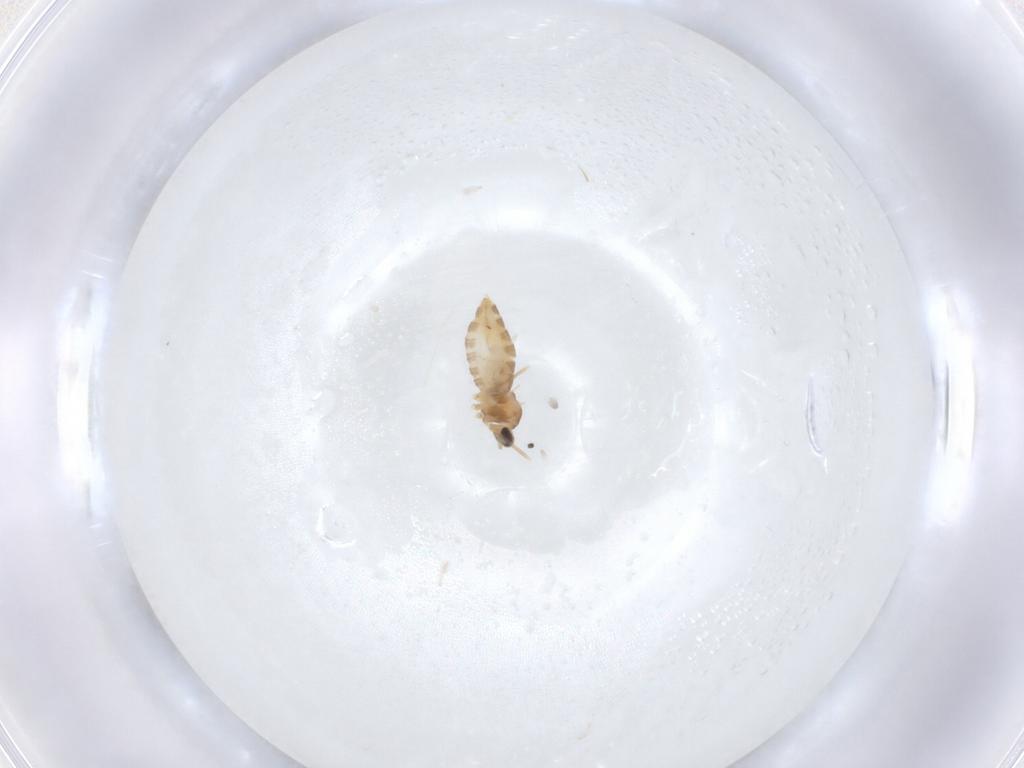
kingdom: Animalia
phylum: Arthropoda
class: Insecta
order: Diptera
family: Cecidomyiidae
